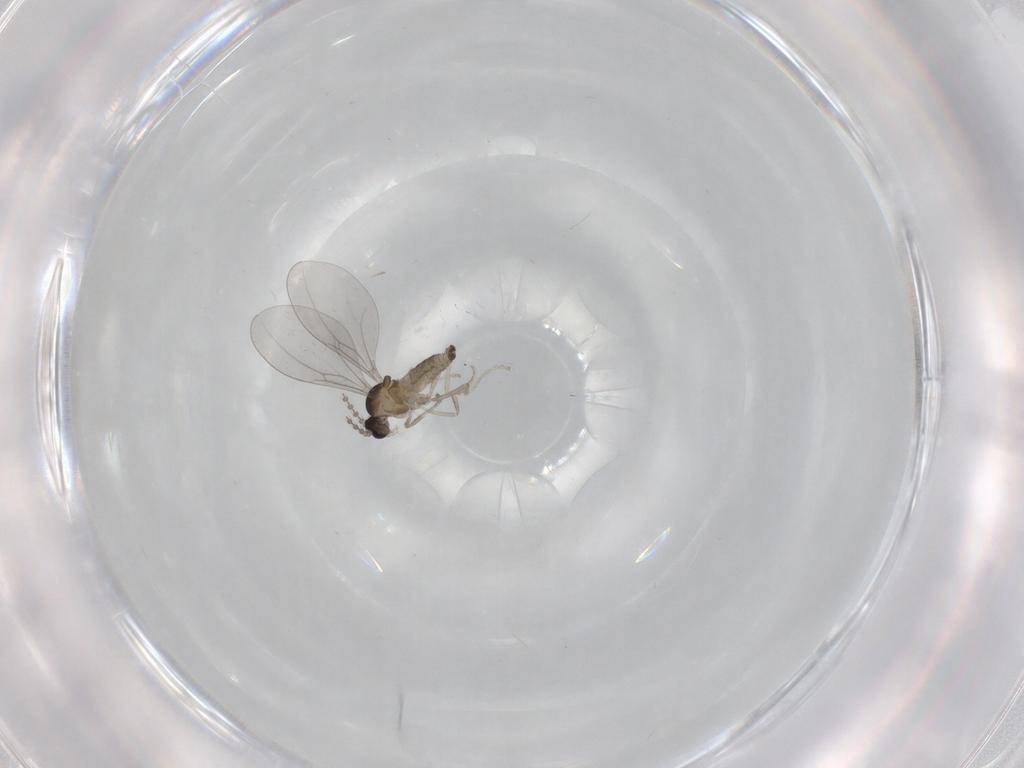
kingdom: Animalia
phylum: Arthropoda
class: Insecta
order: Diptera
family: Cecidomyiidae
